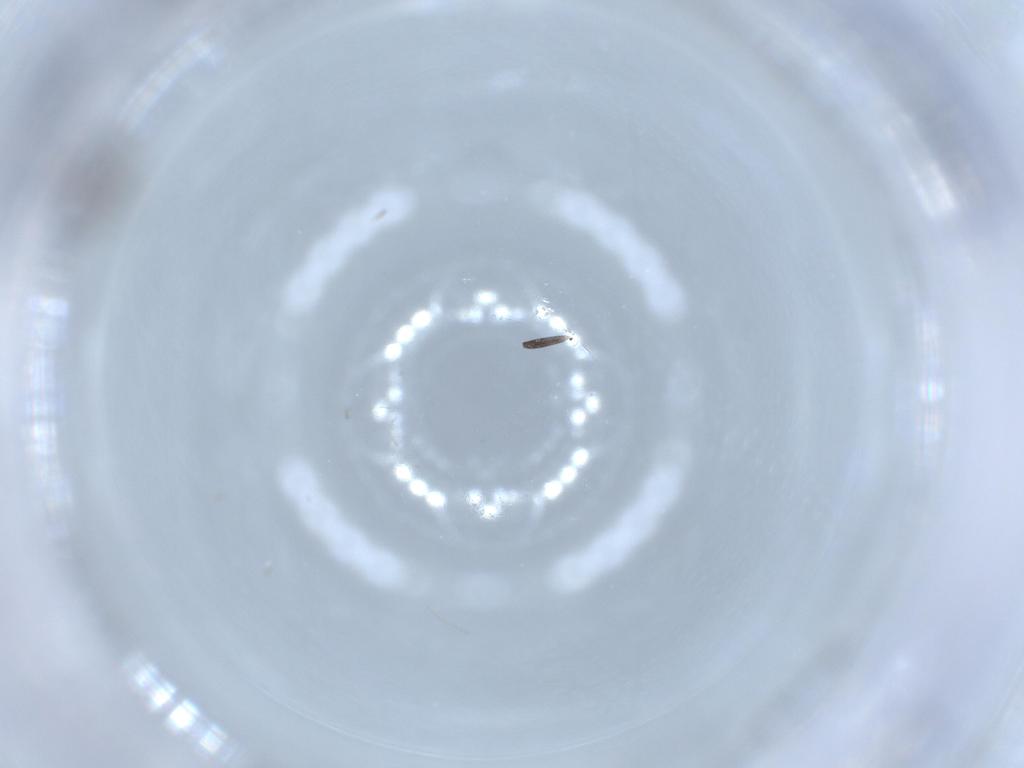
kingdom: Animalia
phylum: Arthropoda
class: Insecta
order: Hymenoptera
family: Platygastridae
